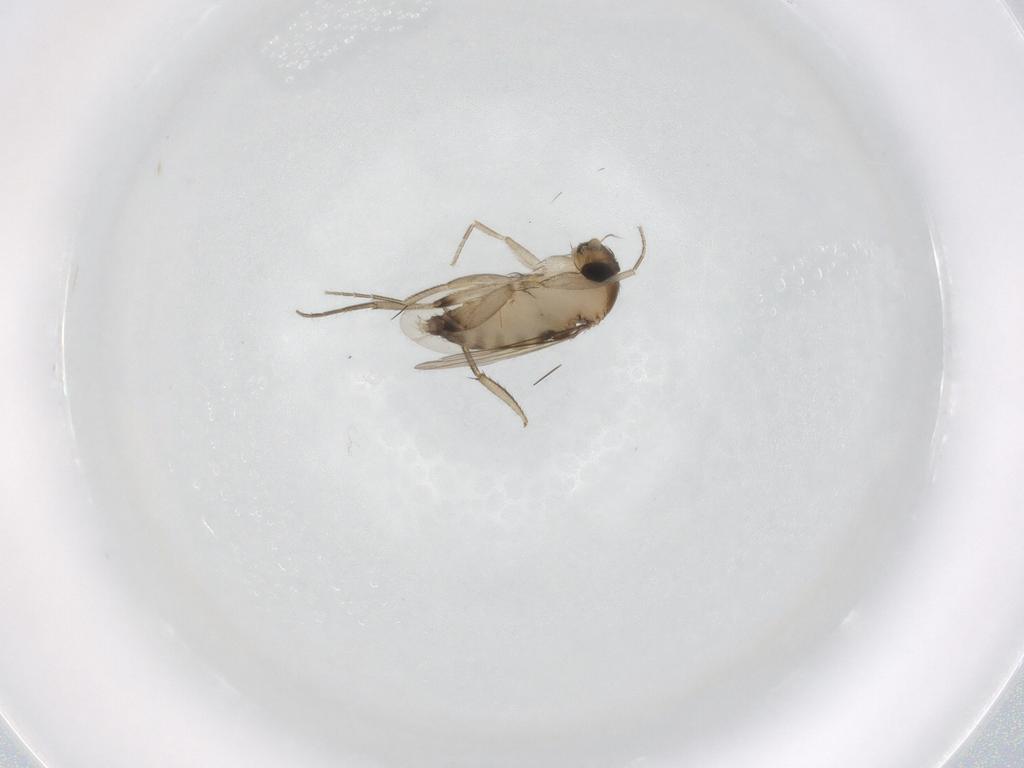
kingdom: Animalia
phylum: Arthropoda
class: Insecta
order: Diptera
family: Phoridae
